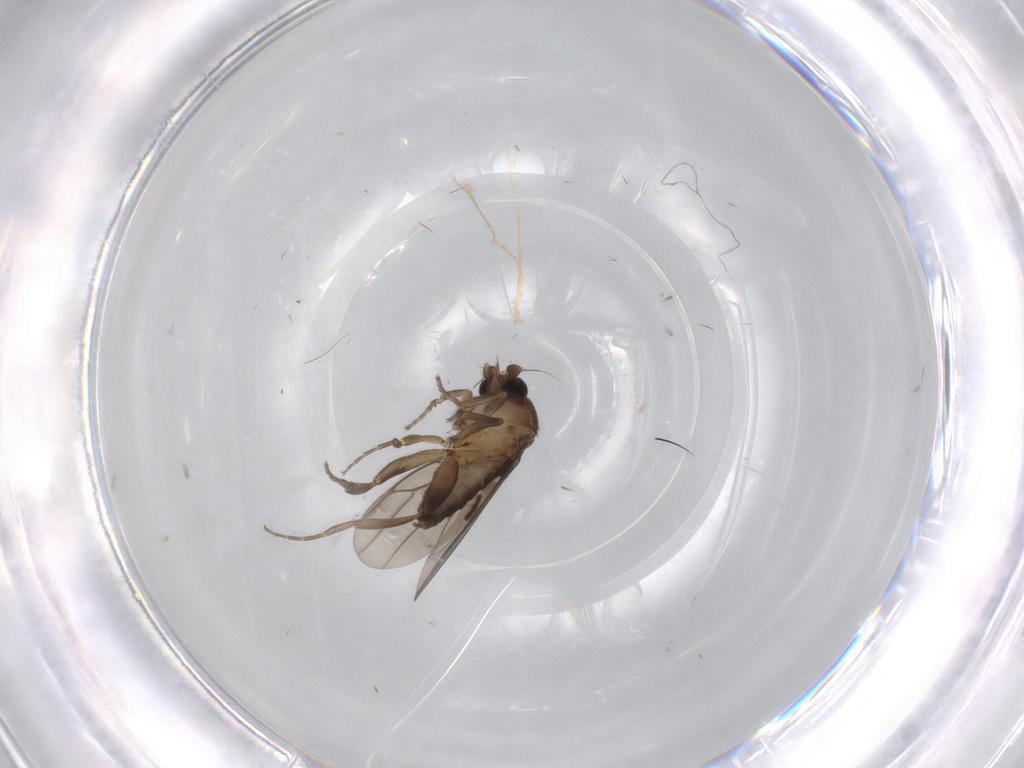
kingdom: Animalia
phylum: Arthropoda
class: Insecta
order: Diptera
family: Sciaridae
